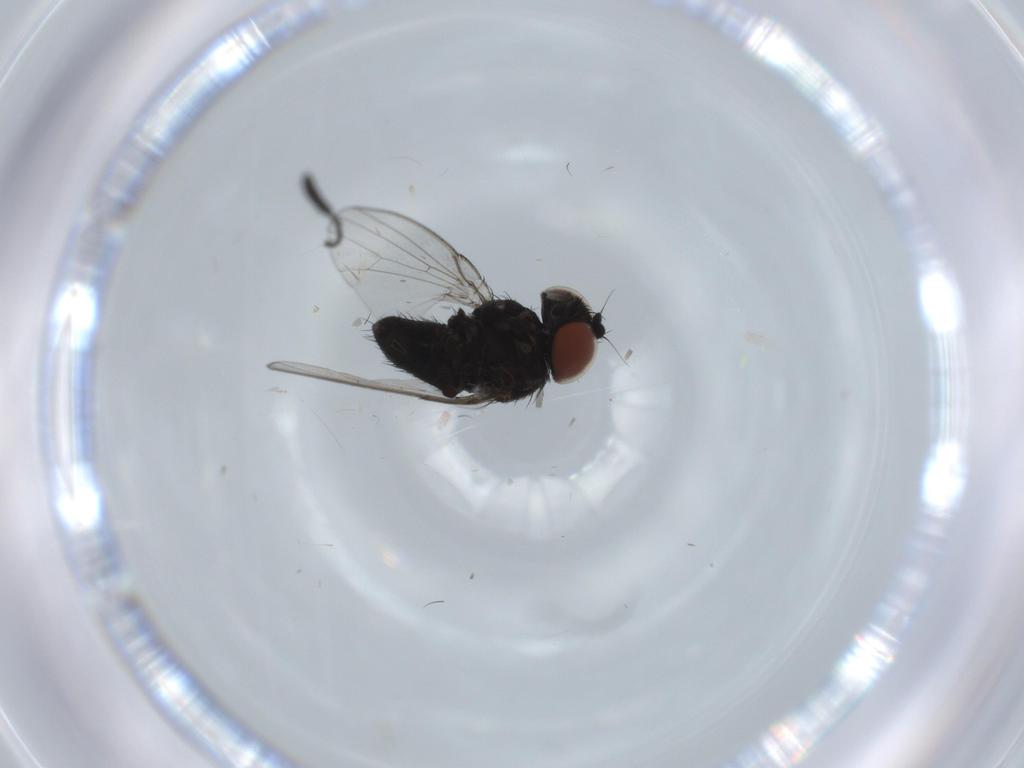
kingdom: Animalia
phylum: Arthropoda
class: Insecta
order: Diptera
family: Milichiidae
